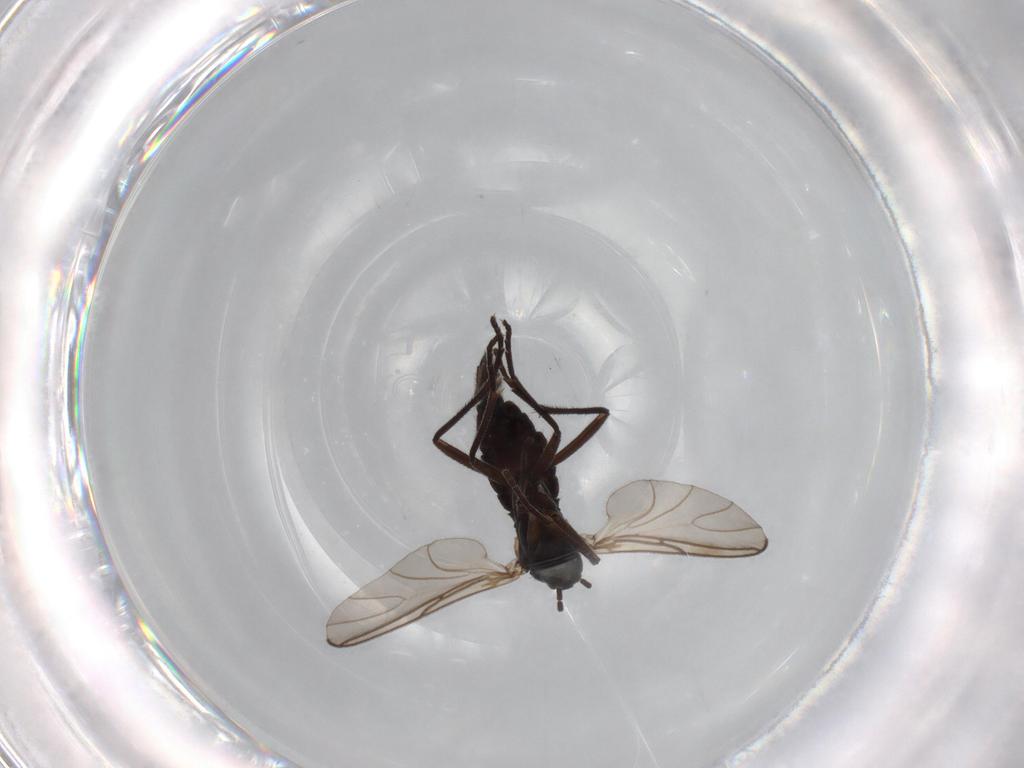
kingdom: Animalia
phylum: Arthropoda
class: Insecta
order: Diptera
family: Sciaridae
